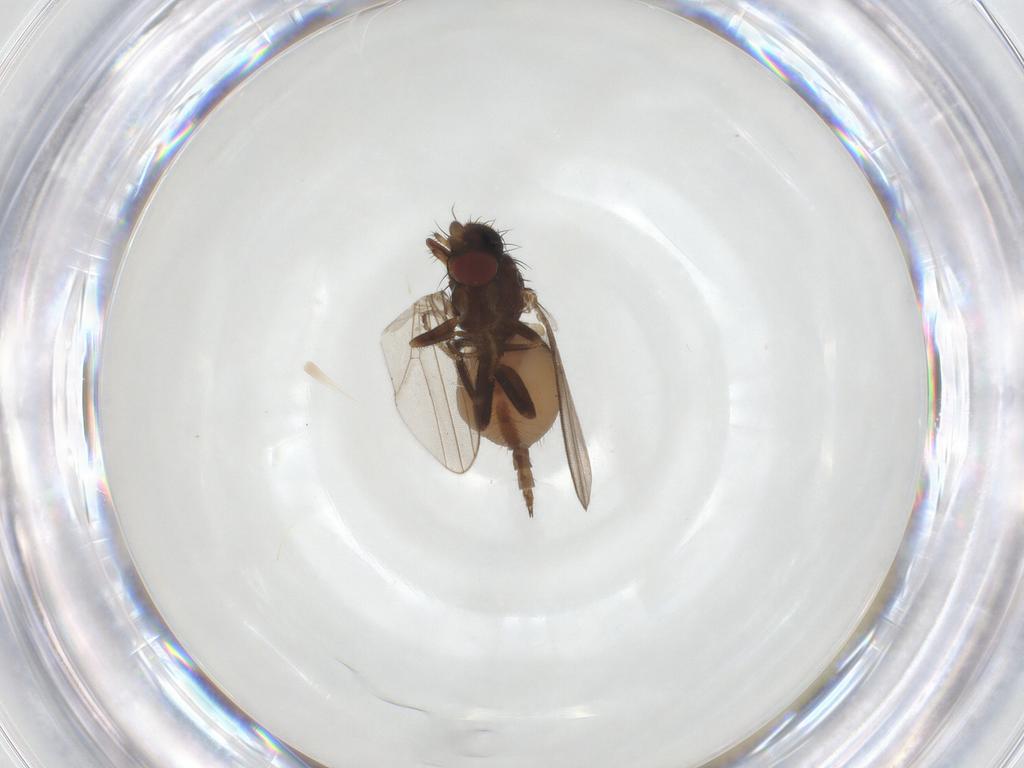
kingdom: Animalia
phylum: Arthropoda
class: Insecta
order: Diptera
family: Milichiidae
